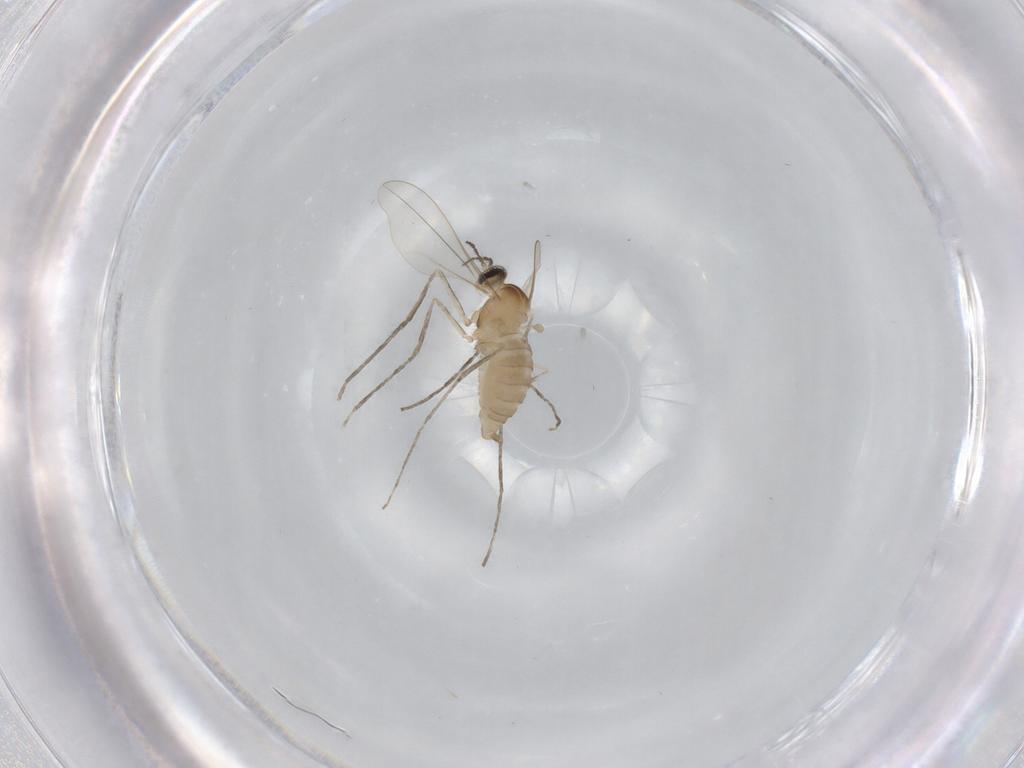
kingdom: Animalia
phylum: Arthropoda
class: Insecta
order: Diptera
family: Cecidomyiidae
